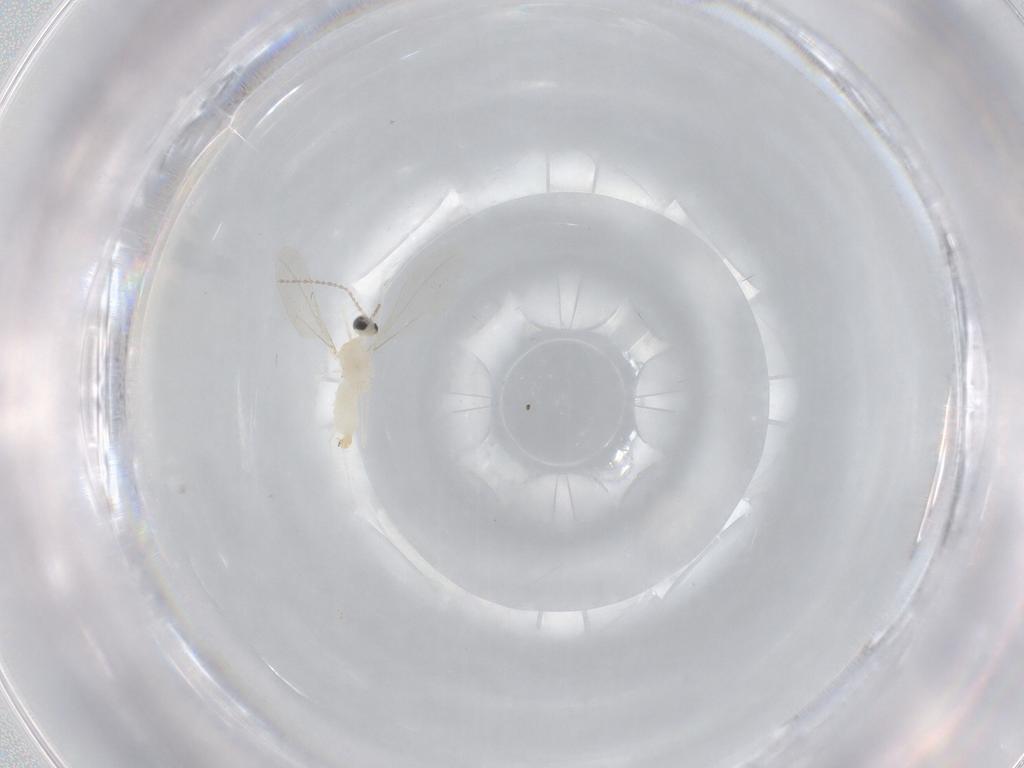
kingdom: Animalia
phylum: Arthropoda
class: Insecta
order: Diptera
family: Cecidomyiidae
